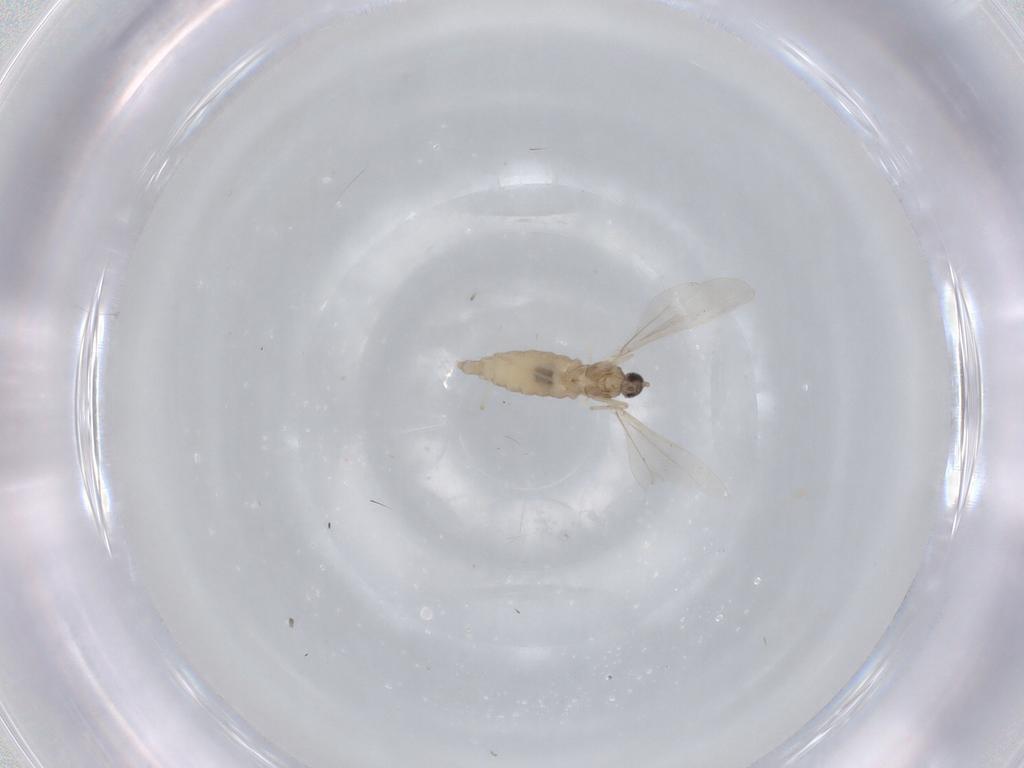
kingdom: Animalia
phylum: Arthropoda
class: Insecta
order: Diptera
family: Cecidomyiidae
